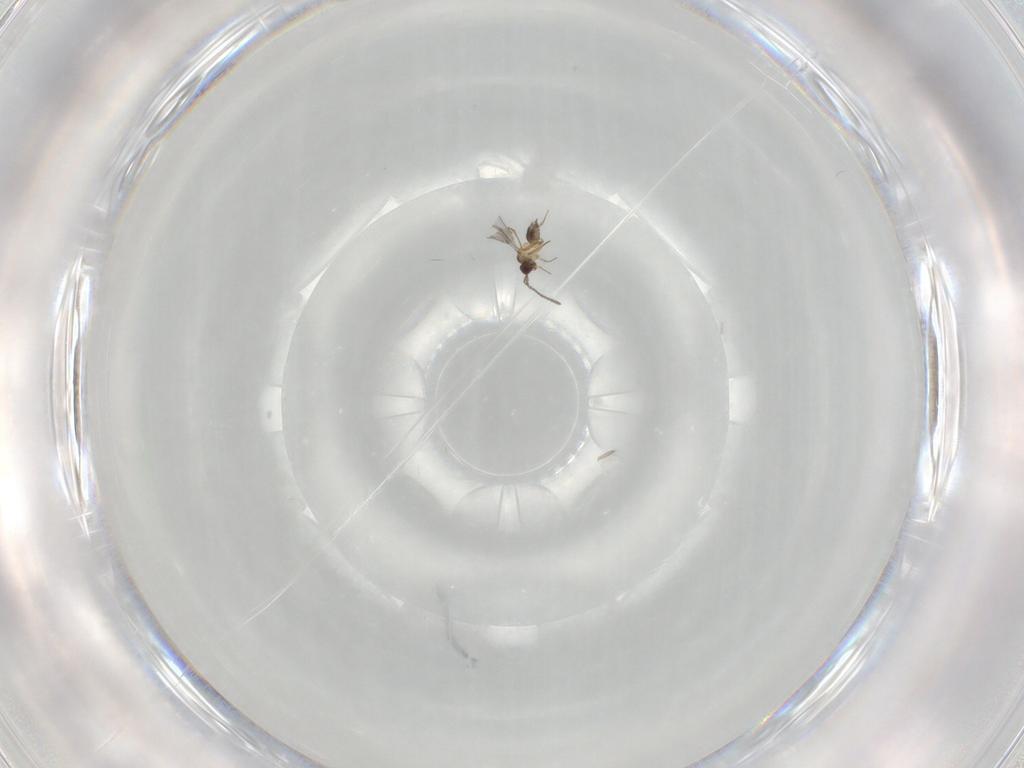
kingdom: Animalia
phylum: Arthropoda
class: Insecta
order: Hymenoptera
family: Mymaridae
